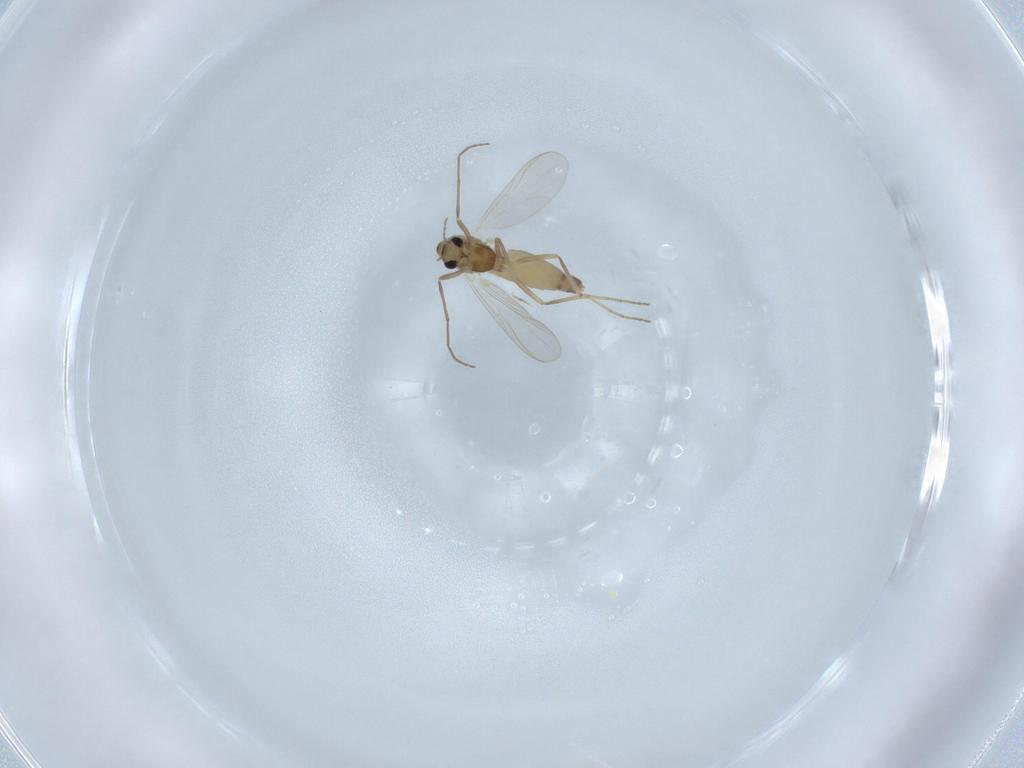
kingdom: Animalia
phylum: Arthropoda
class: Insecta
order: Diptera
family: Sciaridae
